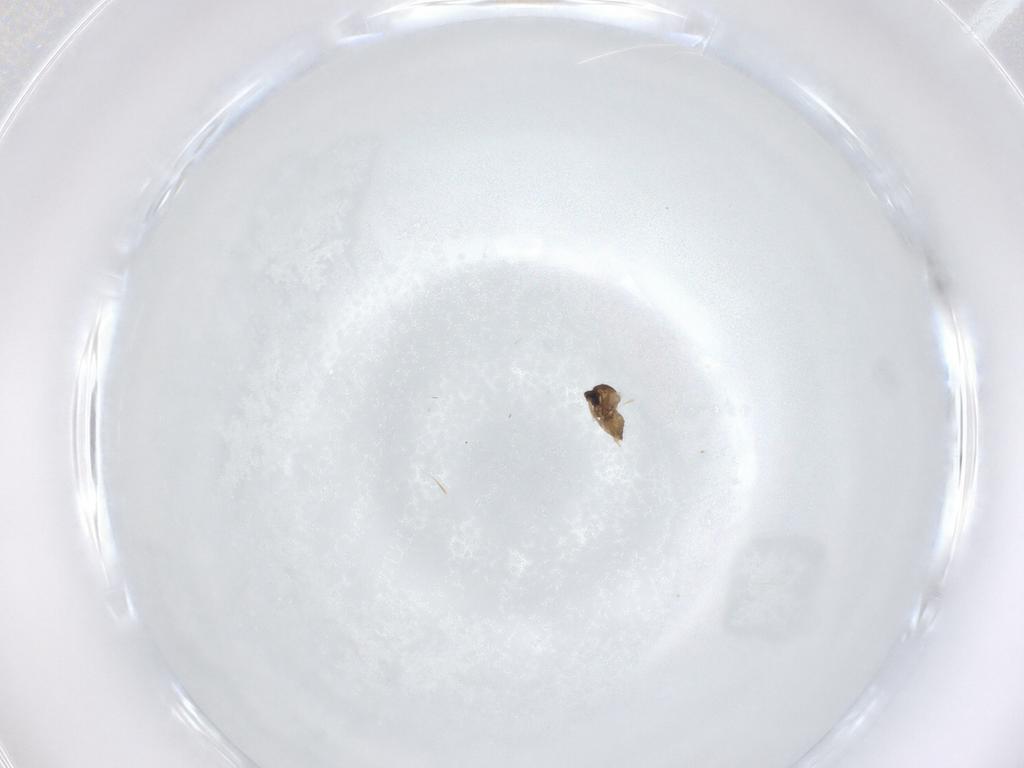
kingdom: Animalia
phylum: Arthropoda
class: Insecta
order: Diptera
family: Cecidomyiidae
